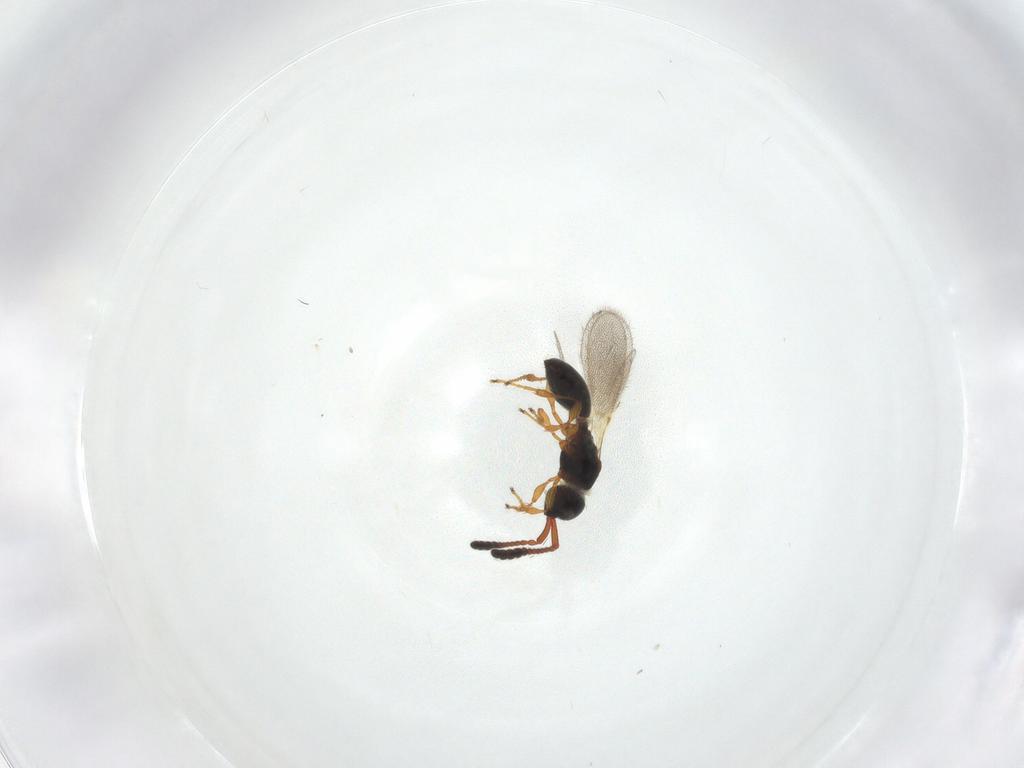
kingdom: Animalia
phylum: Arthropoda
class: Insecta
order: Hymenoptera
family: Diapriidae
